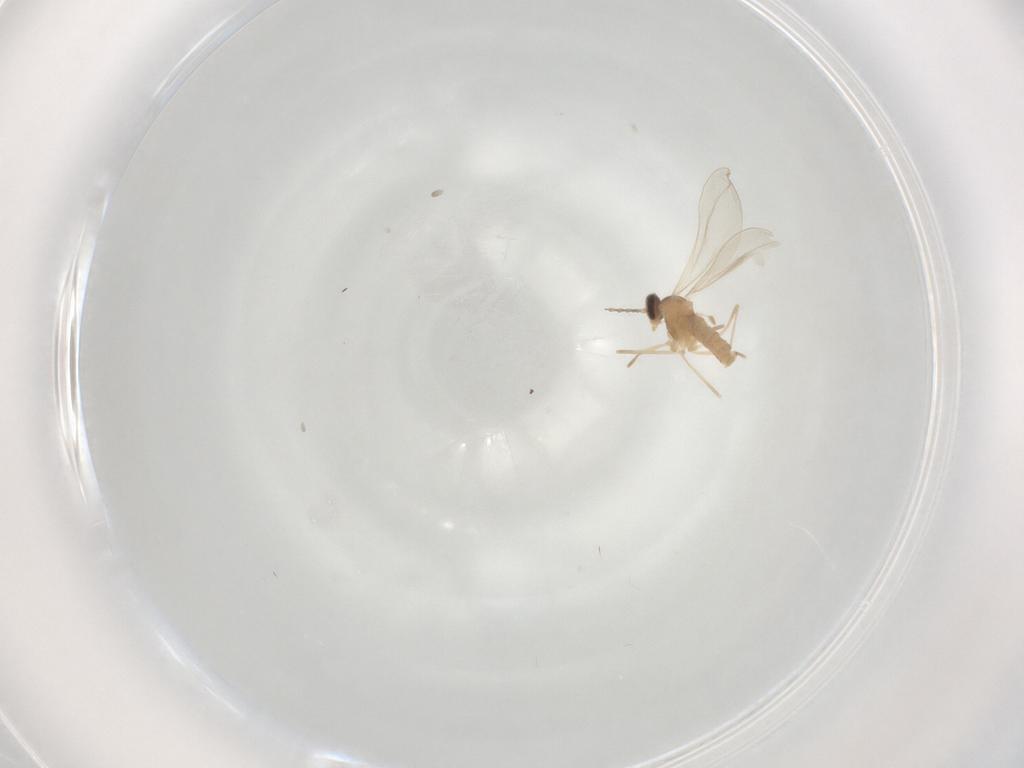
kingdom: Animalia
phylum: Arthropoda
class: Insecta
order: Diptera
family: Cecidomyiidae
